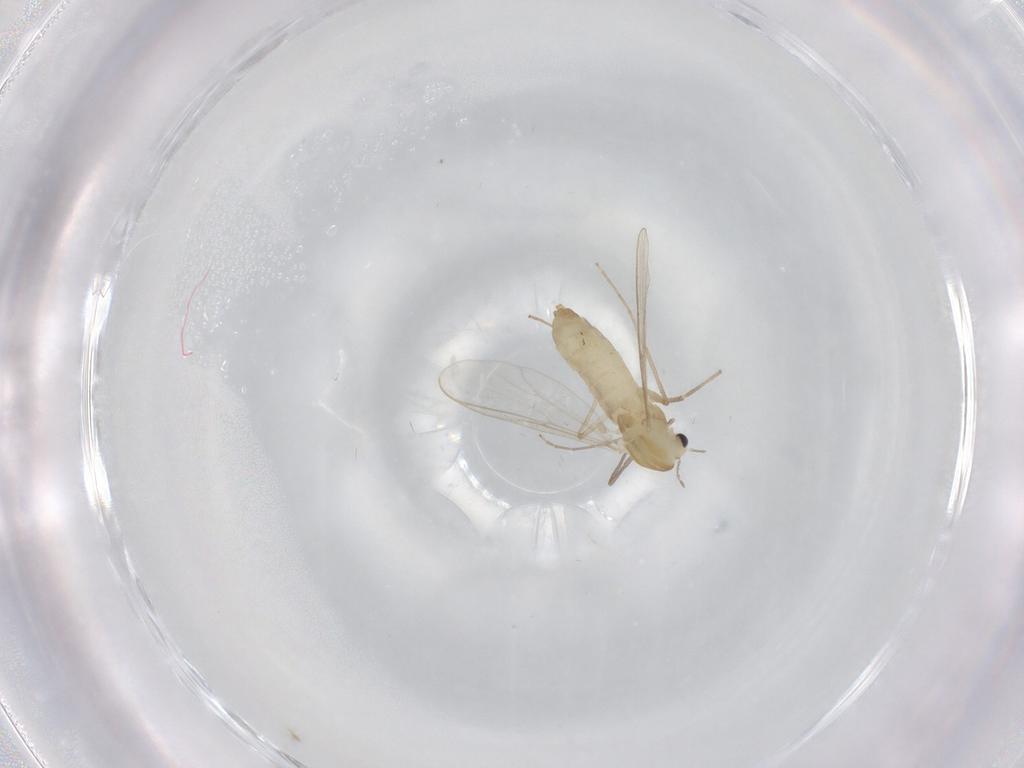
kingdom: Animalia
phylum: Arthropoda
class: Insecta
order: Diptera
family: Chironomidae
